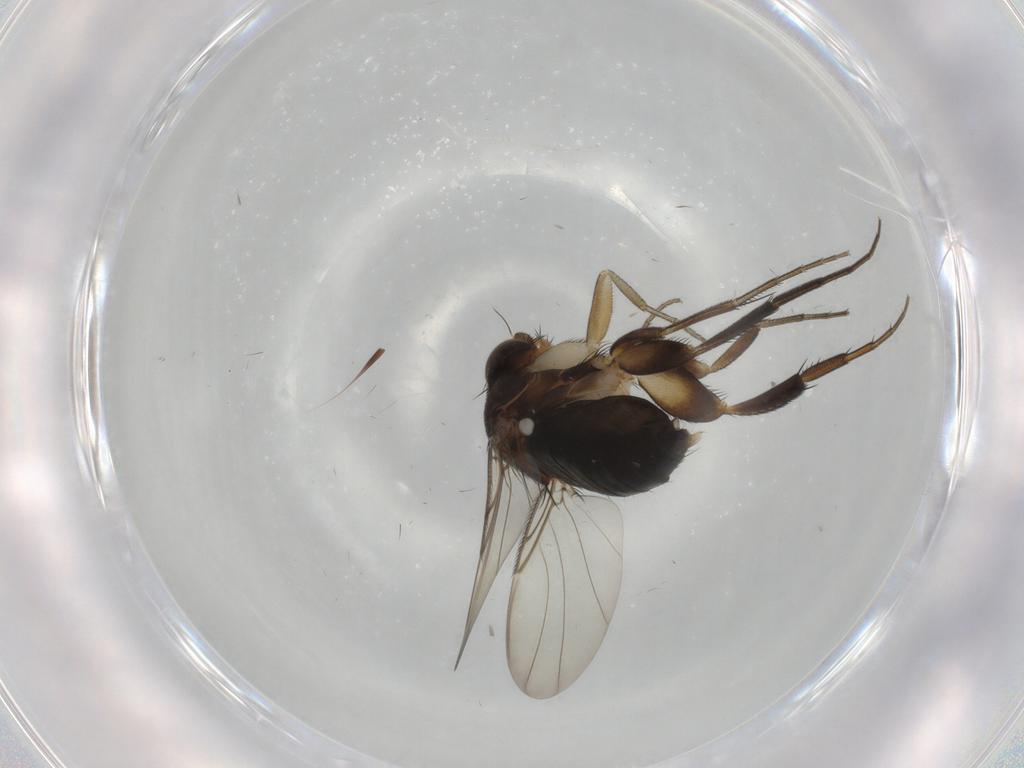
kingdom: Animalia
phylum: Arthropoda
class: Insecta
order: Diptera
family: Phoridae
